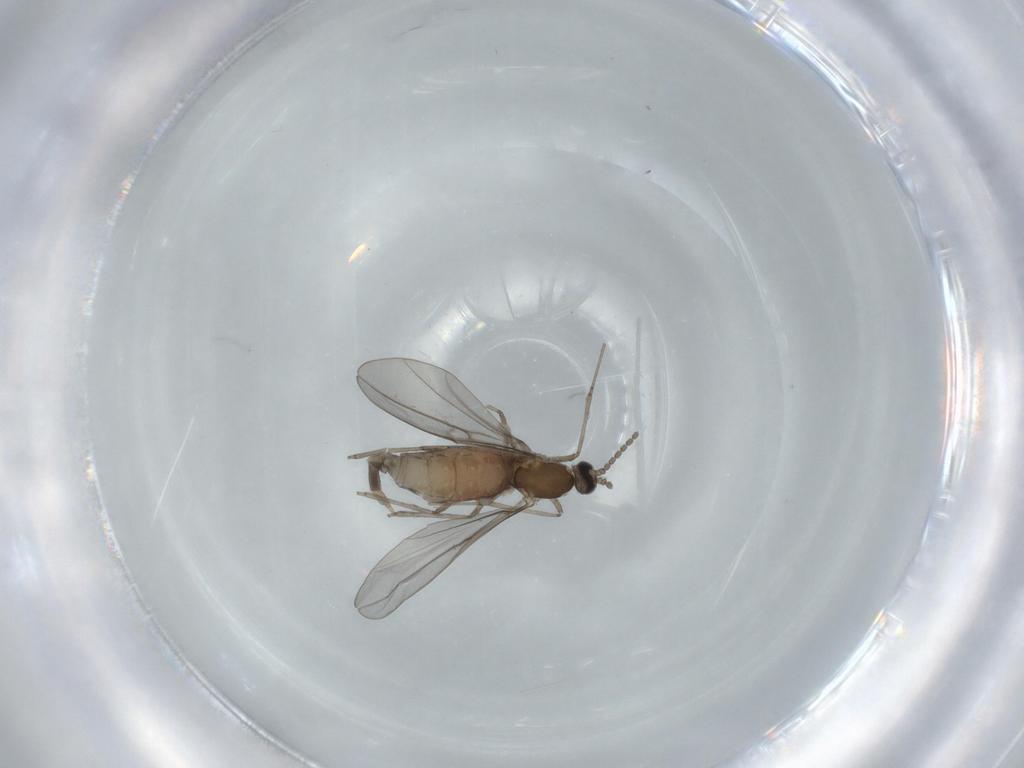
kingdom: Animalia
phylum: Arthropoda
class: Insecta
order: Diptera
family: Cecidomyiidae
